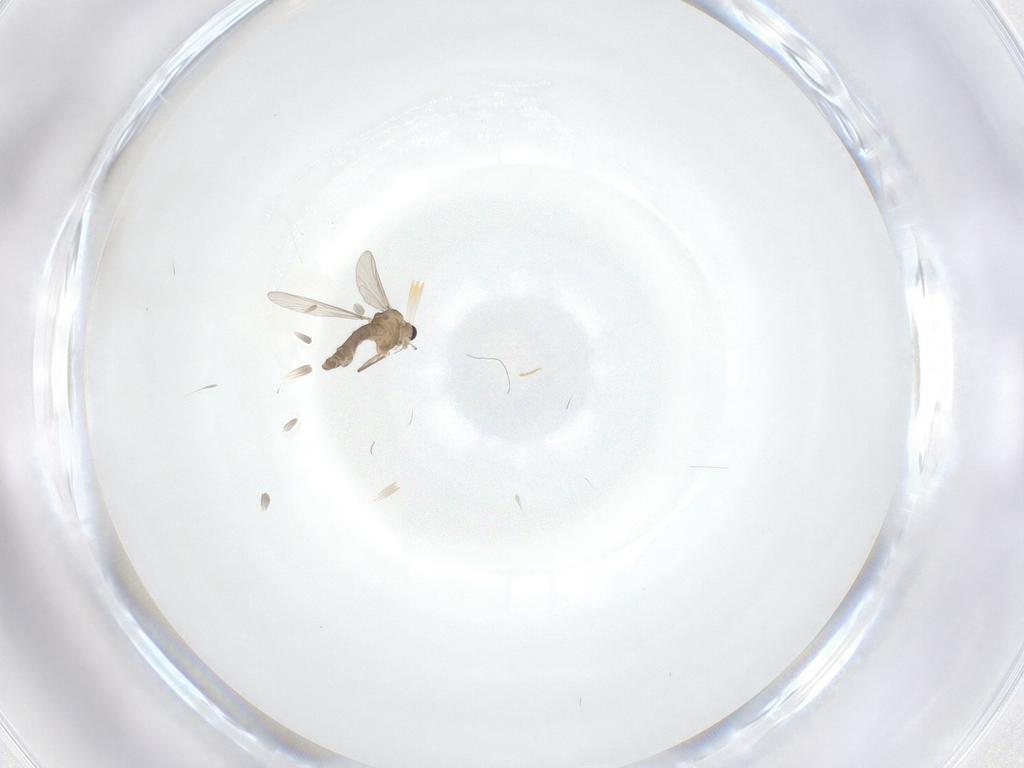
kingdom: Animalia
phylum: Arthropoda
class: Insecta
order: Diptera
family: Chironomidae
